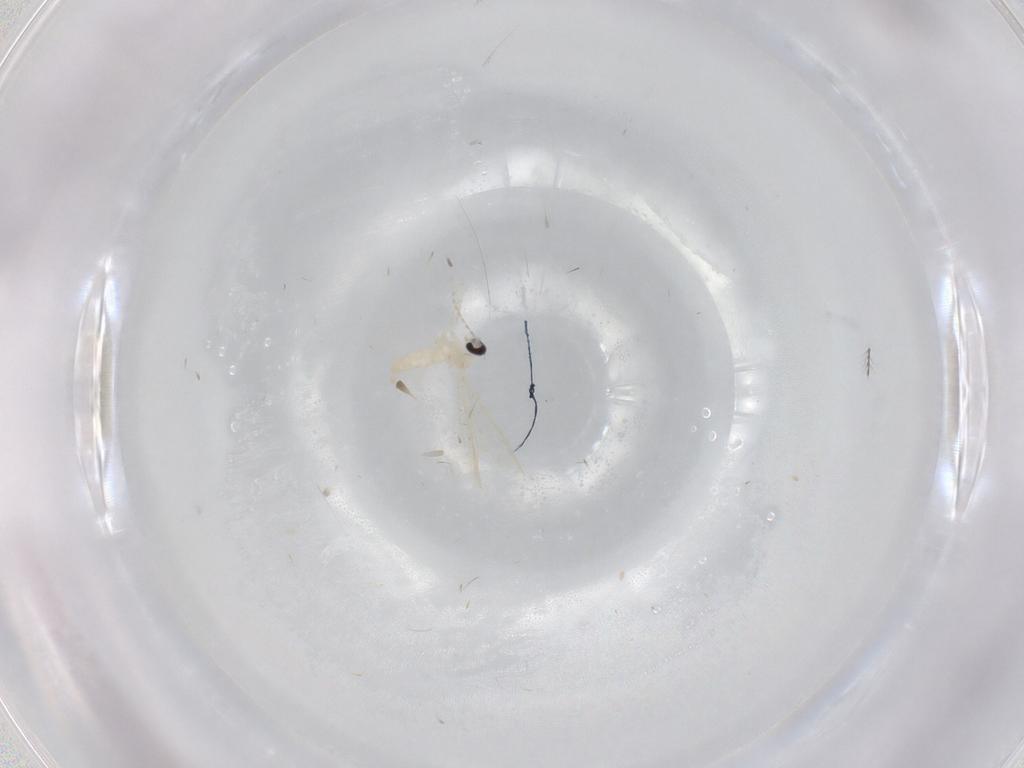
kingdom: Animalia
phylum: Arthropoda
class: Insecta
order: Diptera
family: Cecidomyiidae
